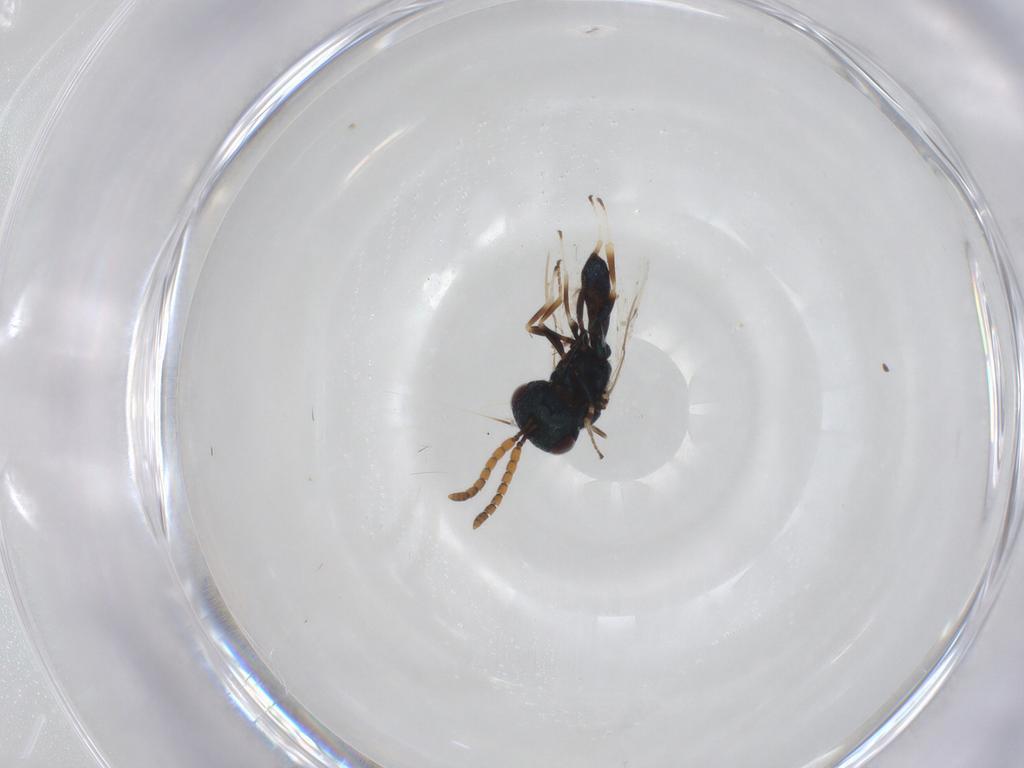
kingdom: Animalia
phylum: Arthropoda
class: Insecta
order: Hymenoptera
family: Pteromalidae
